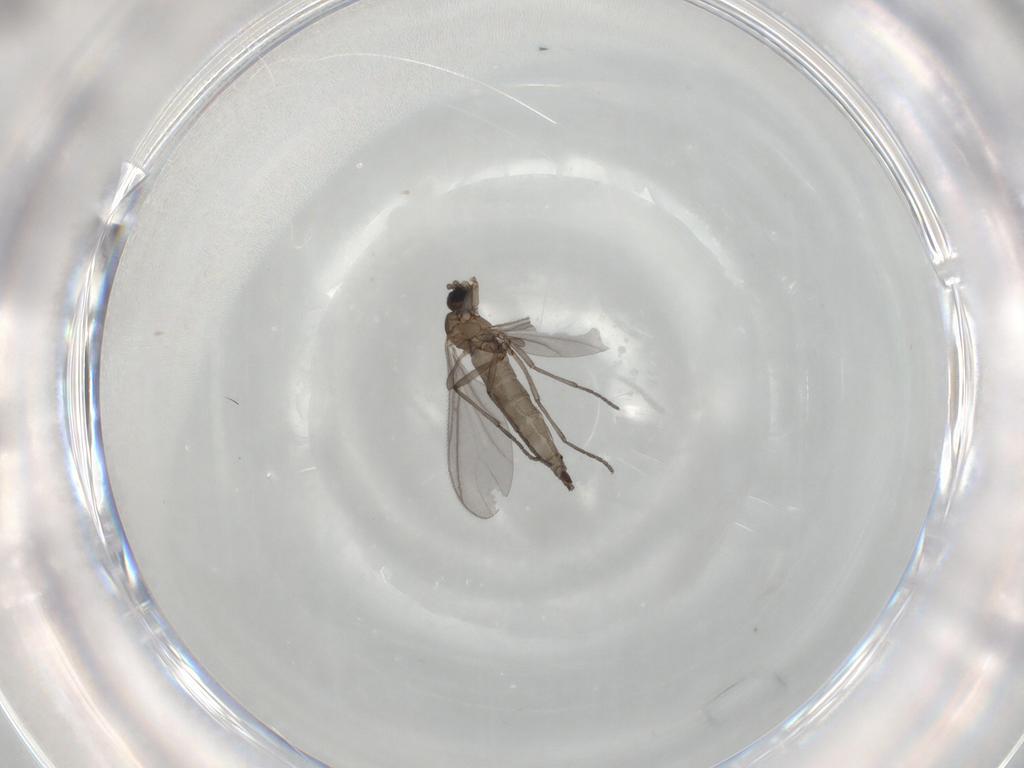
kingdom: Animalia
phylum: Arthropoda
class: Insecta
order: Diptera
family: Sciaridae
